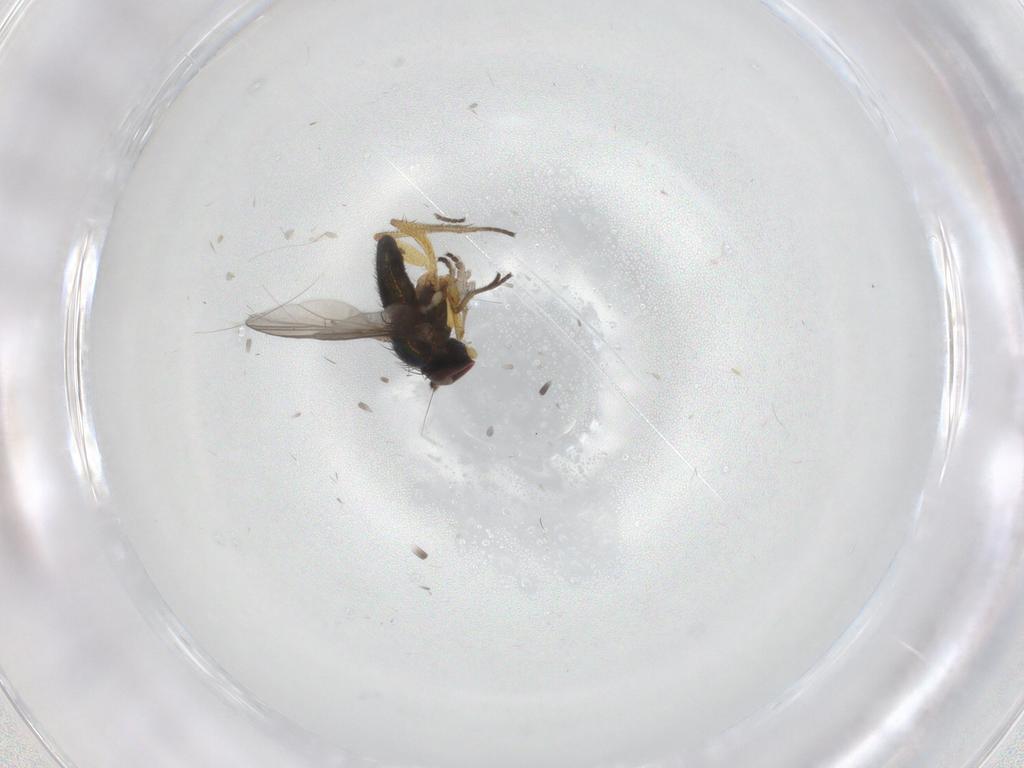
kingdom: Animalia
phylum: Arthropoda
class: Insecta
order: Diptera
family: Dolichopodidae
